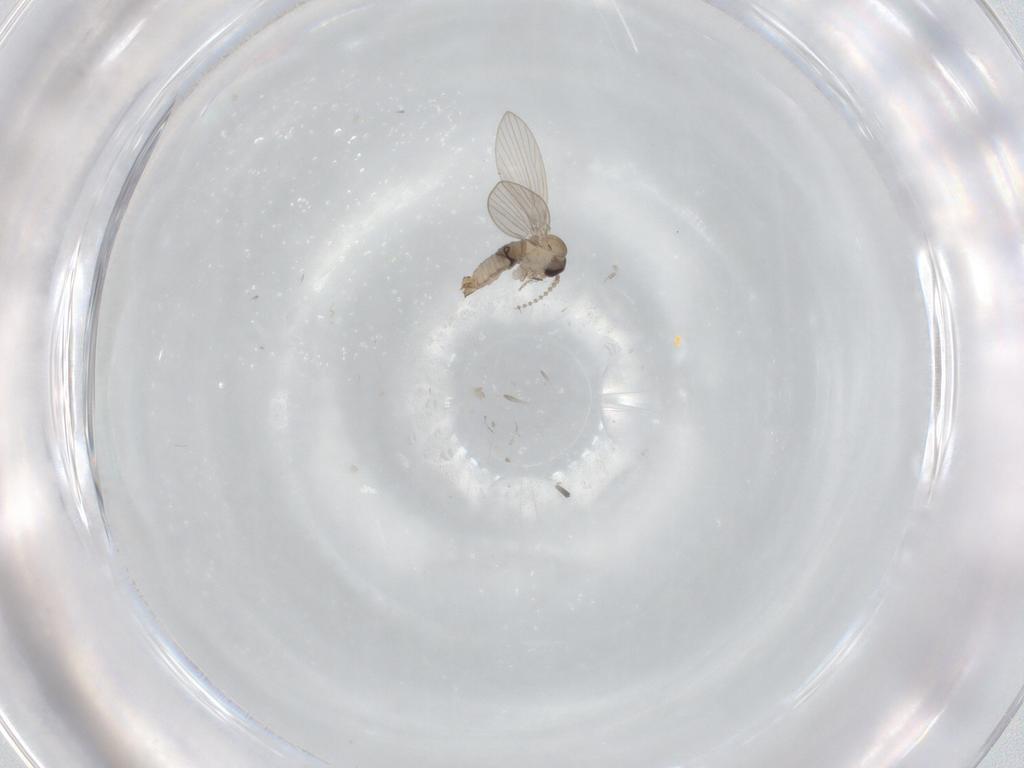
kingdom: Animalia
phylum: Arthropoda
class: Insecta
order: Diptera
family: Psychodidae
